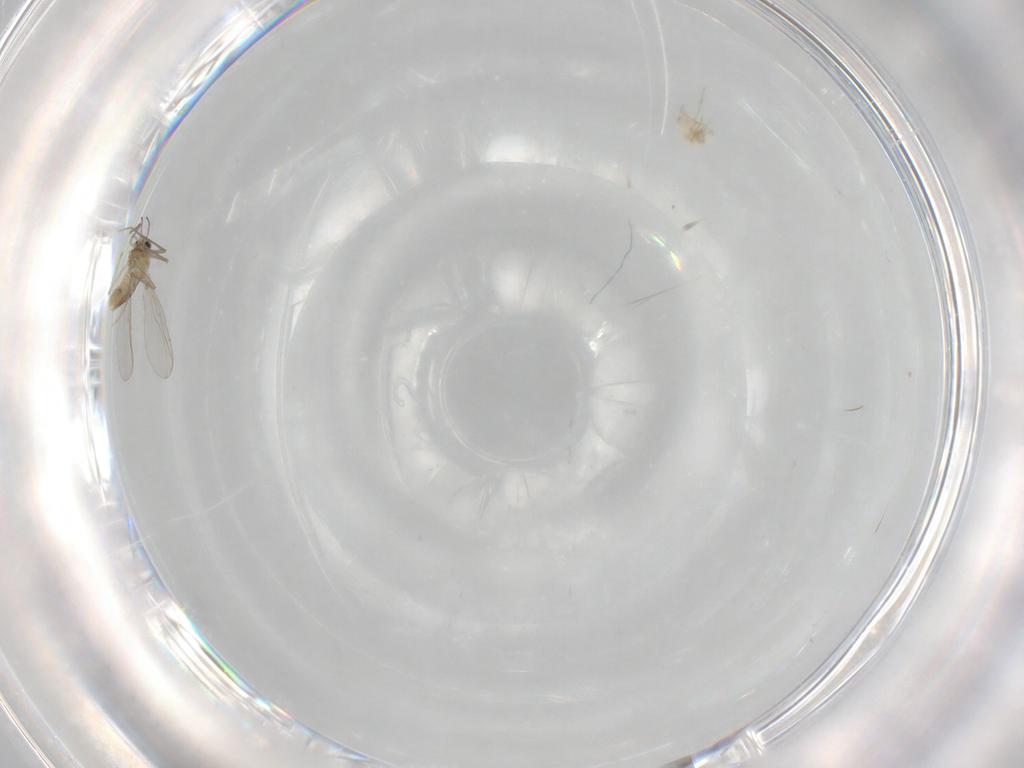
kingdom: Animalia
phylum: Arthropoda
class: Insecta
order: Diptera
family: Chironomidae
